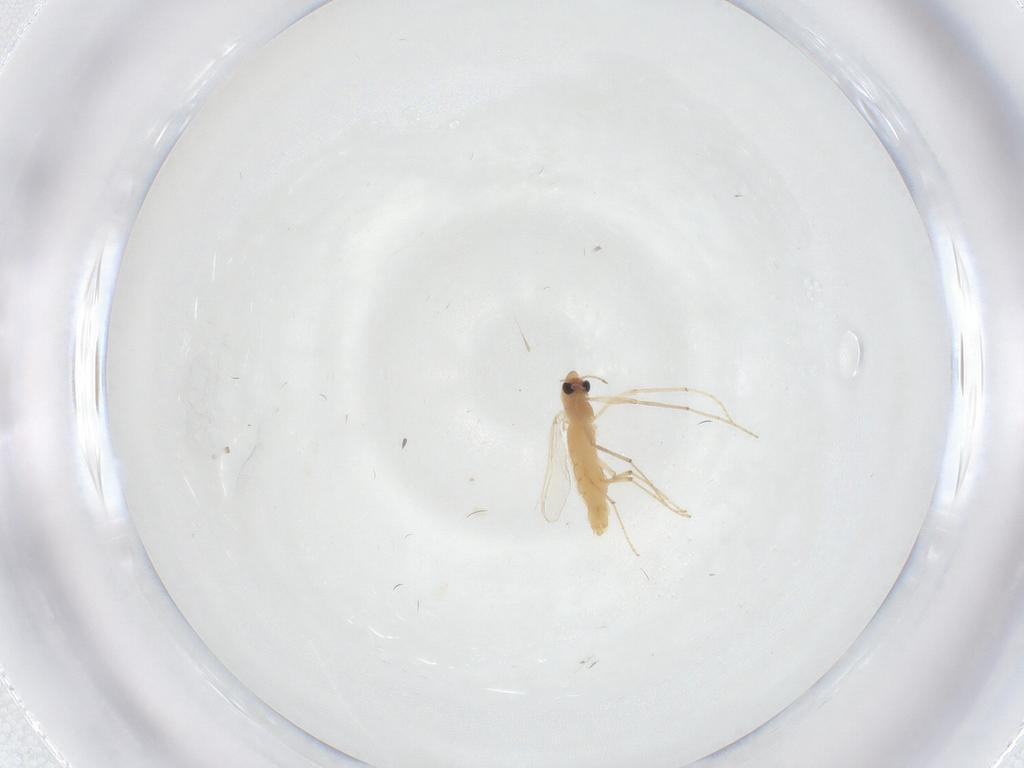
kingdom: Animalia
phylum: Arthropoda
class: Insecta
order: Diptera
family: Chironomidae
